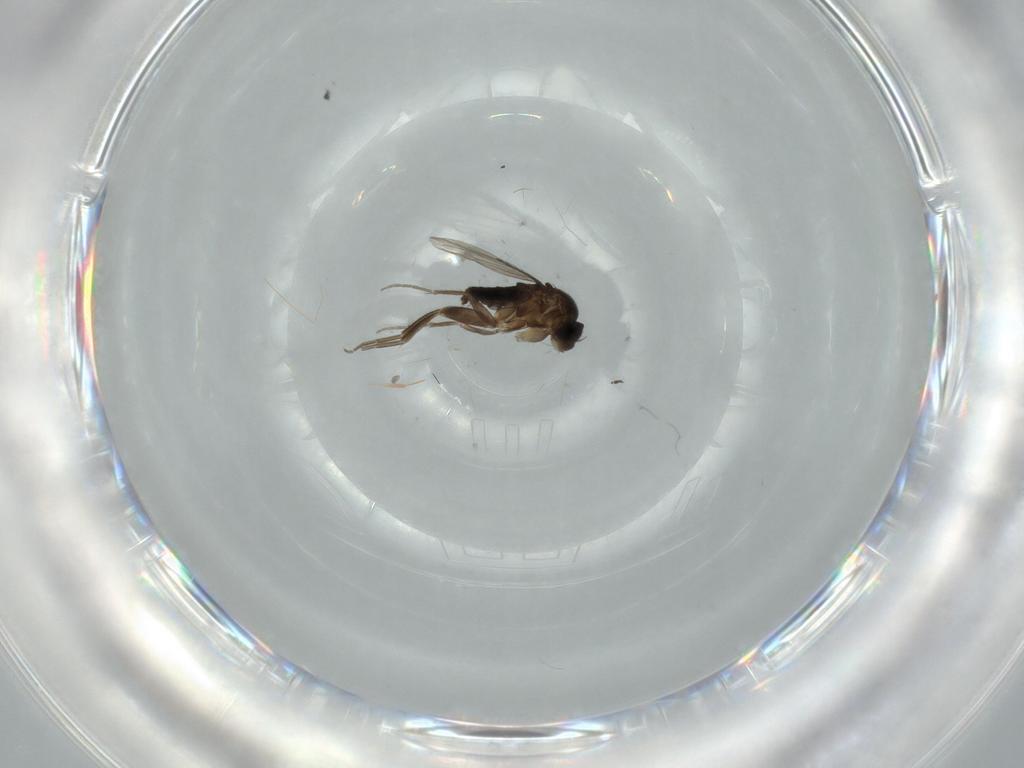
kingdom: Animalia
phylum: Arthropoda
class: Insecta
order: Diptera
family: Phoridae
